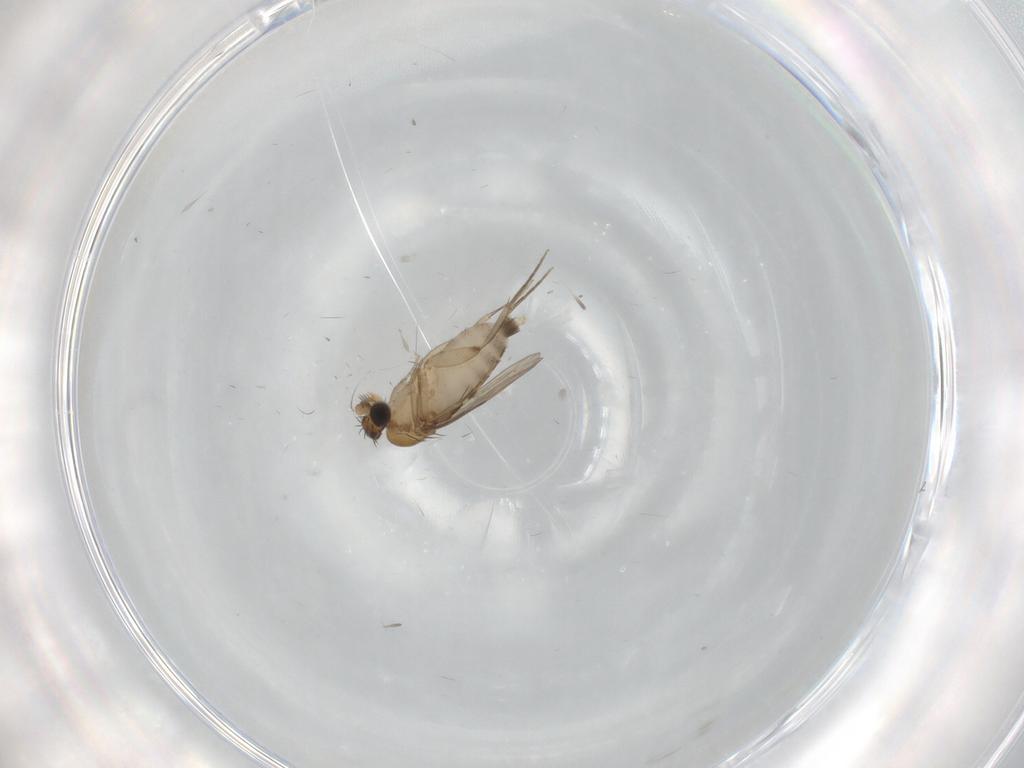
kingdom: Animalia
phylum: Arthropoda
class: Insecta
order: Diptera
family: Phoridae
